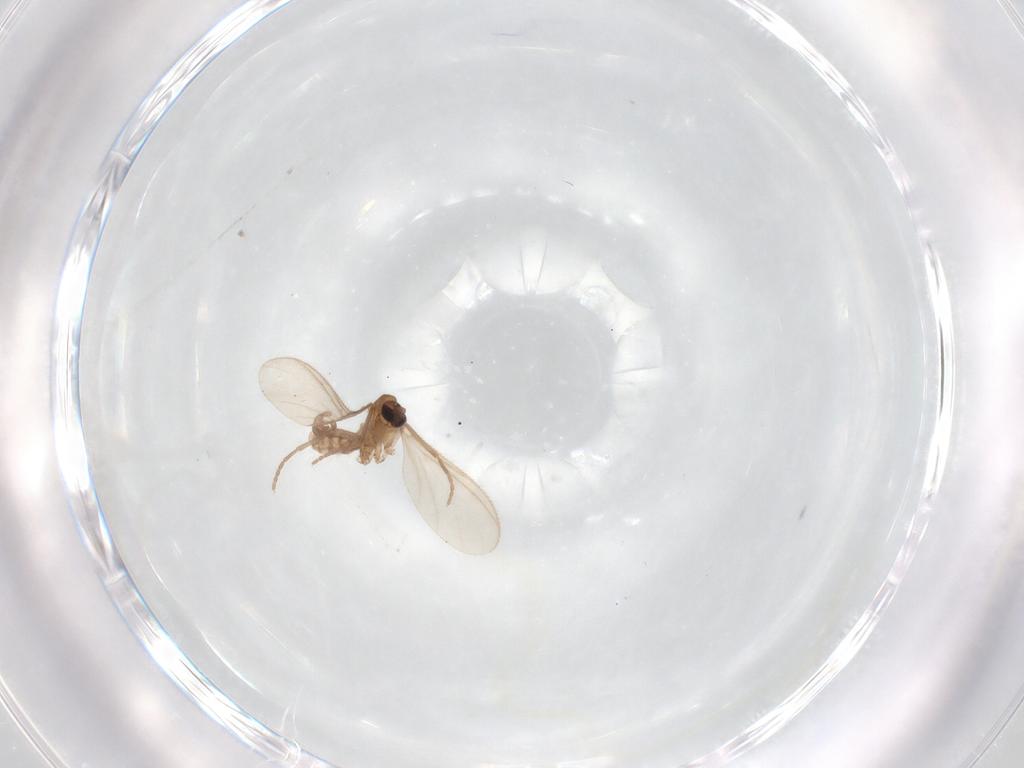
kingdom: Animalia
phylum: Arthropoda
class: Insecta
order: Diptera
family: Sciaridae
